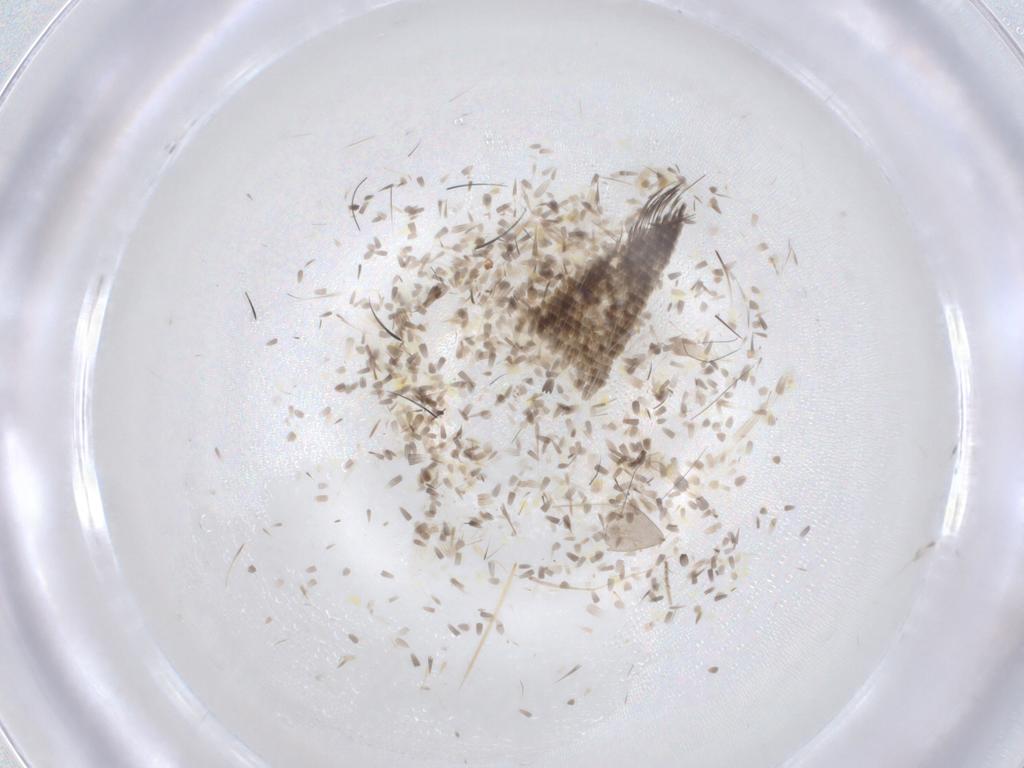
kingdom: Animalia
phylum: Arthropoda
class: Insecta
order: Diptera
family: Cecidomyiidae
